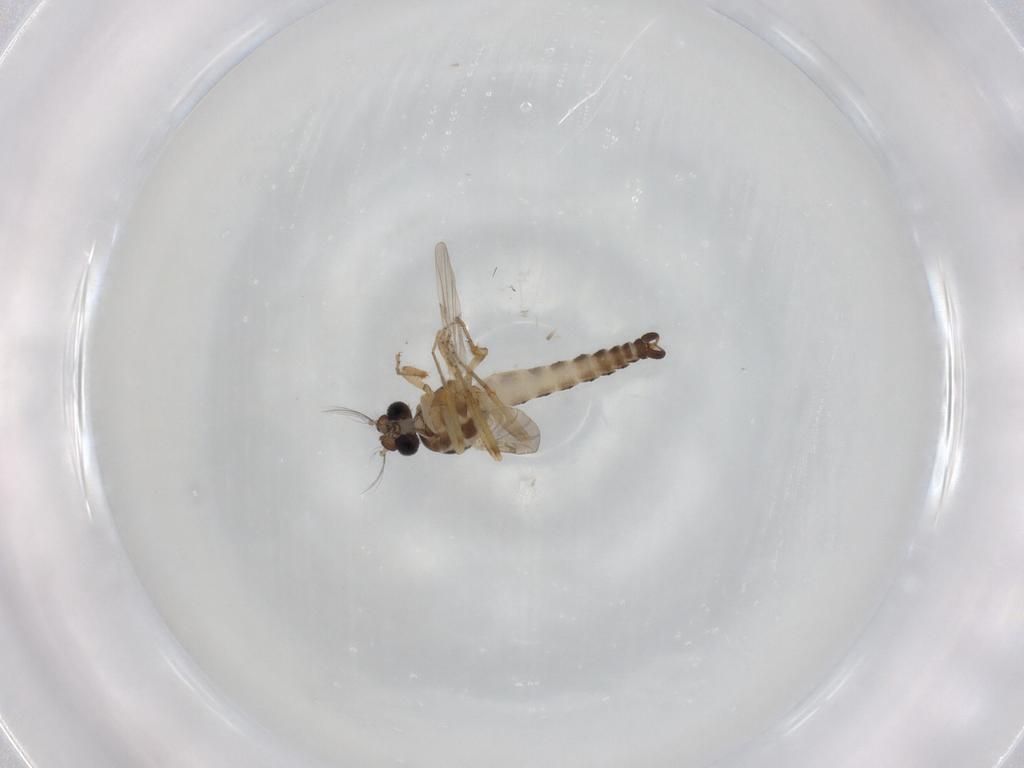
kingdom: Animalia
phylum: Arthropoda
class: Insecta
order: Diptera
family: Ceratopogonidae
